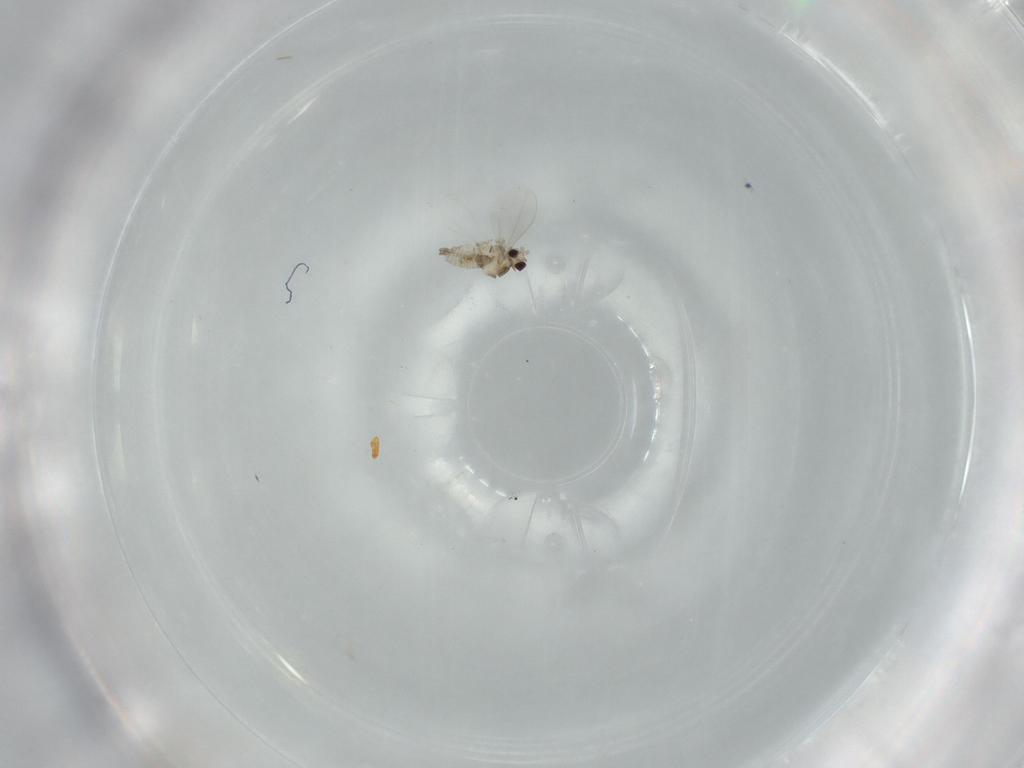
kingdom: Animalia
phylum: Arthropoda
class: Insecta
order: Diptera
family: Cecidomyiidae
